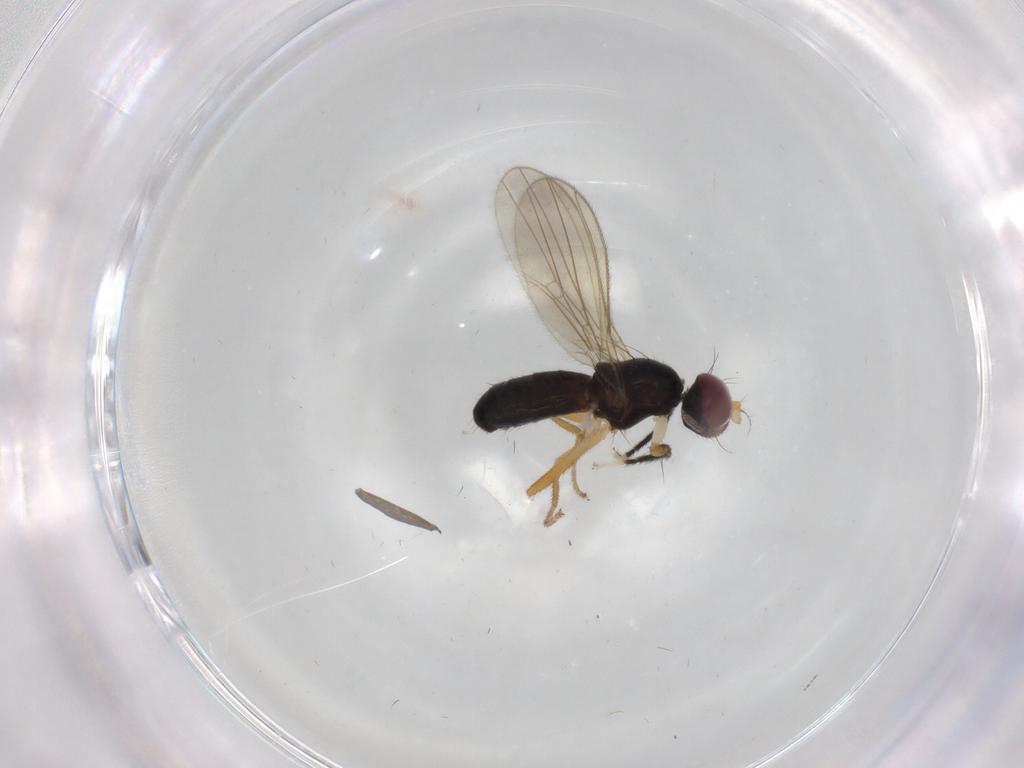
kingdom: Animalia
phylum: Arthropoda
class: Insecta
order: Diptera
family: Anthomyzidae
